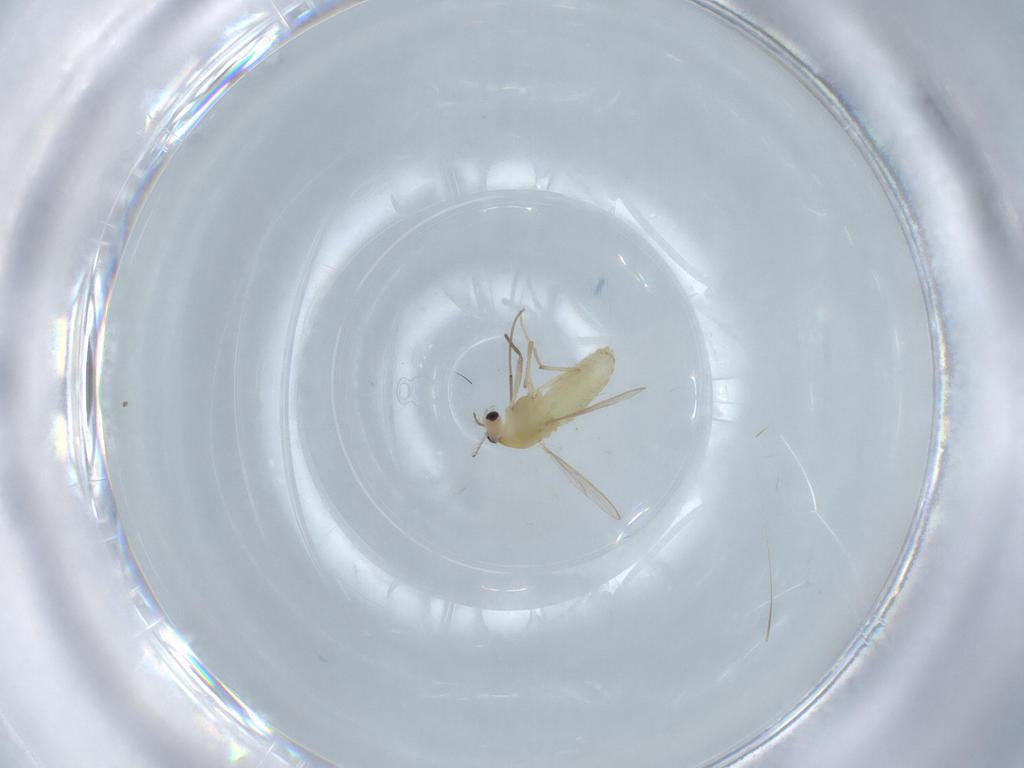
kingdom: Animalia
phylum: Arthropoda
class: Insecta
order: Diptera
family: Chironomidae
